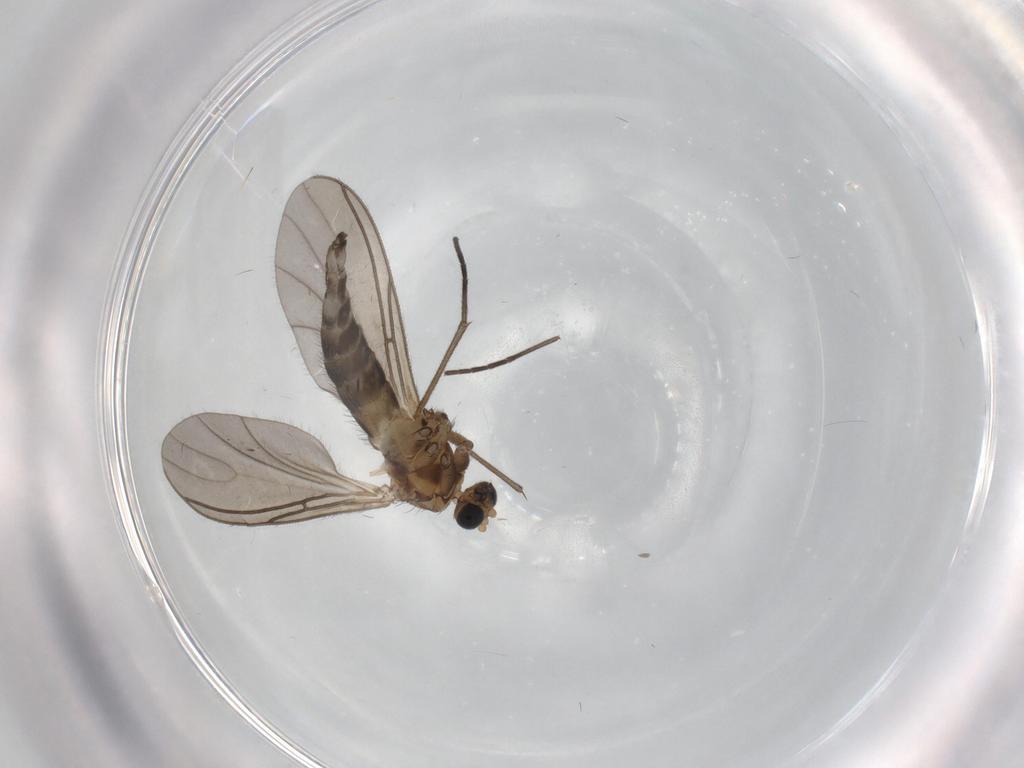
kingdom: Animalia
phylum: Arthropoda
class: Insecta
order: Diptera
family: Sciaridae
